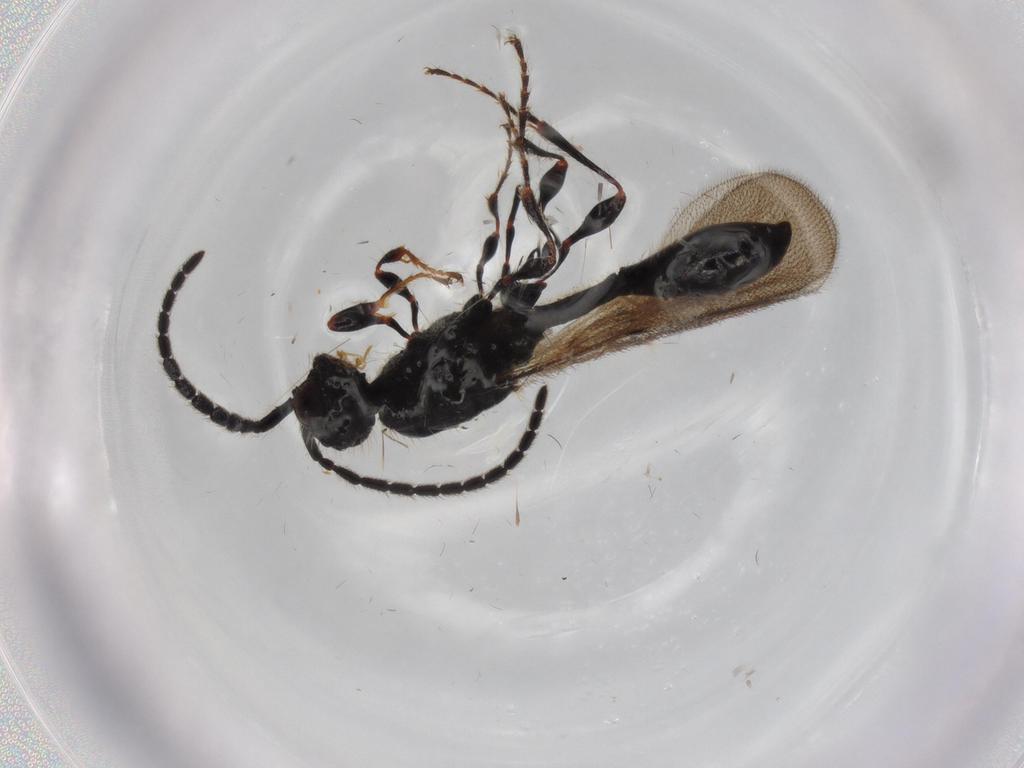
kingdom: Animalia
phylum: Arthropoda
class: Insecta
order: Hymenoptera
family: Diapriidae
